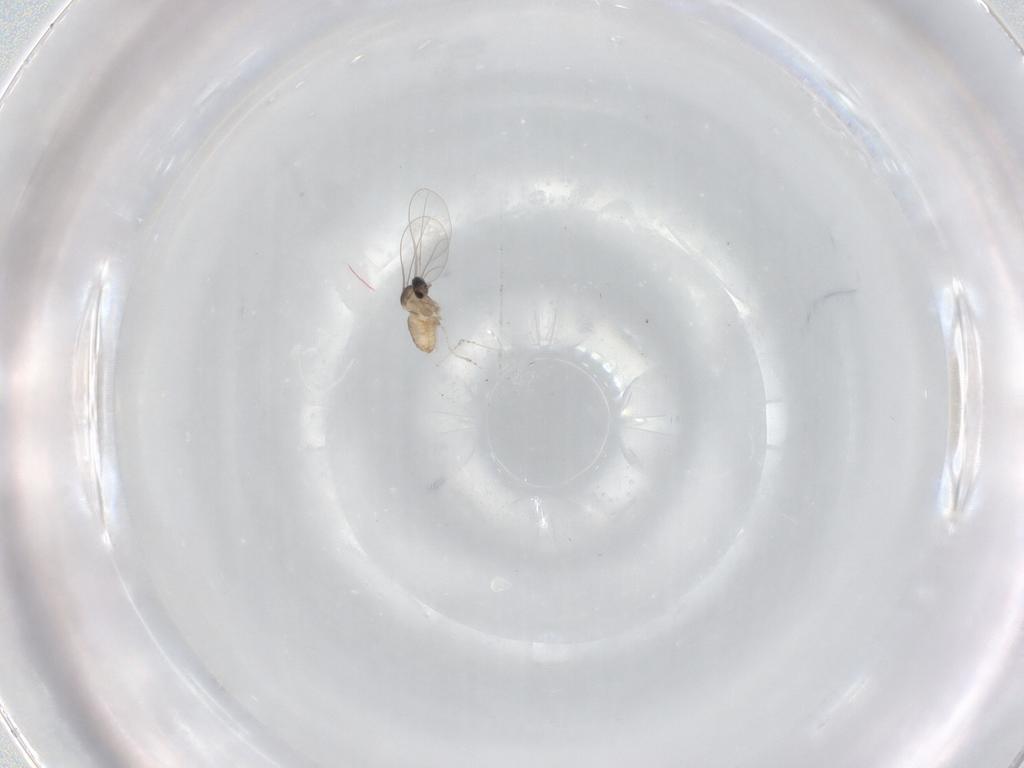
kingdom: Animalia
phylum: Arthropoda
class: Insecta
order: Diptera
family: Cecidomyiidae
